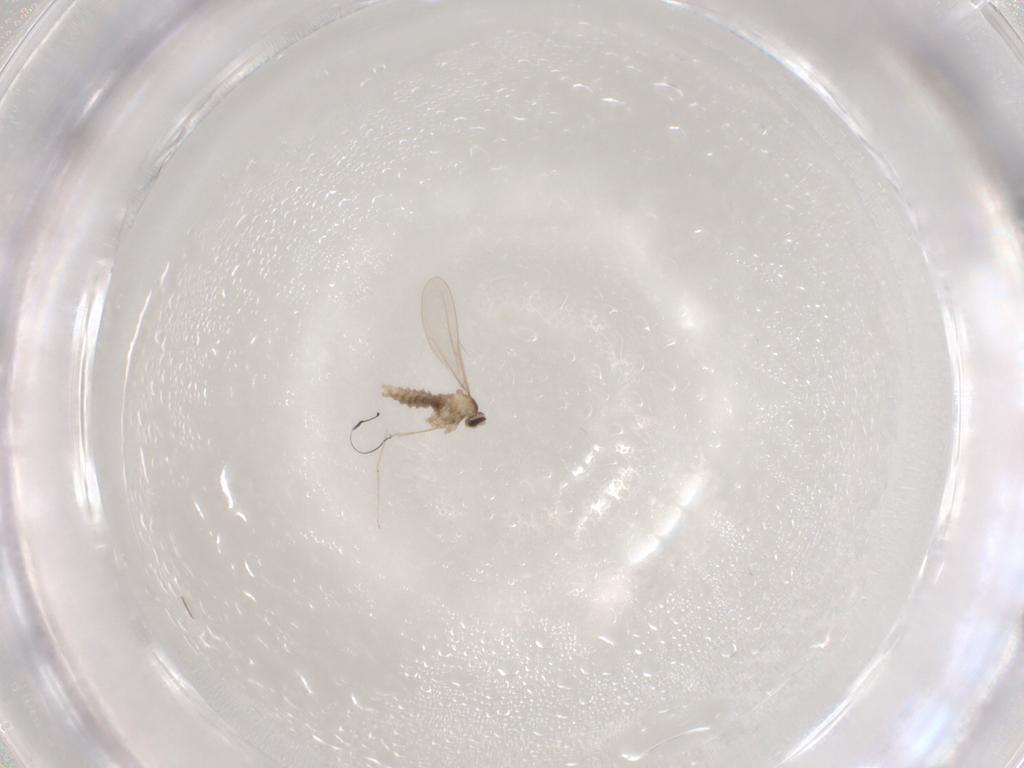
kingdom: Animalia
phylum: Arthropoda
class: Insecta
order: Diptera
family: Cecidomyiidae
